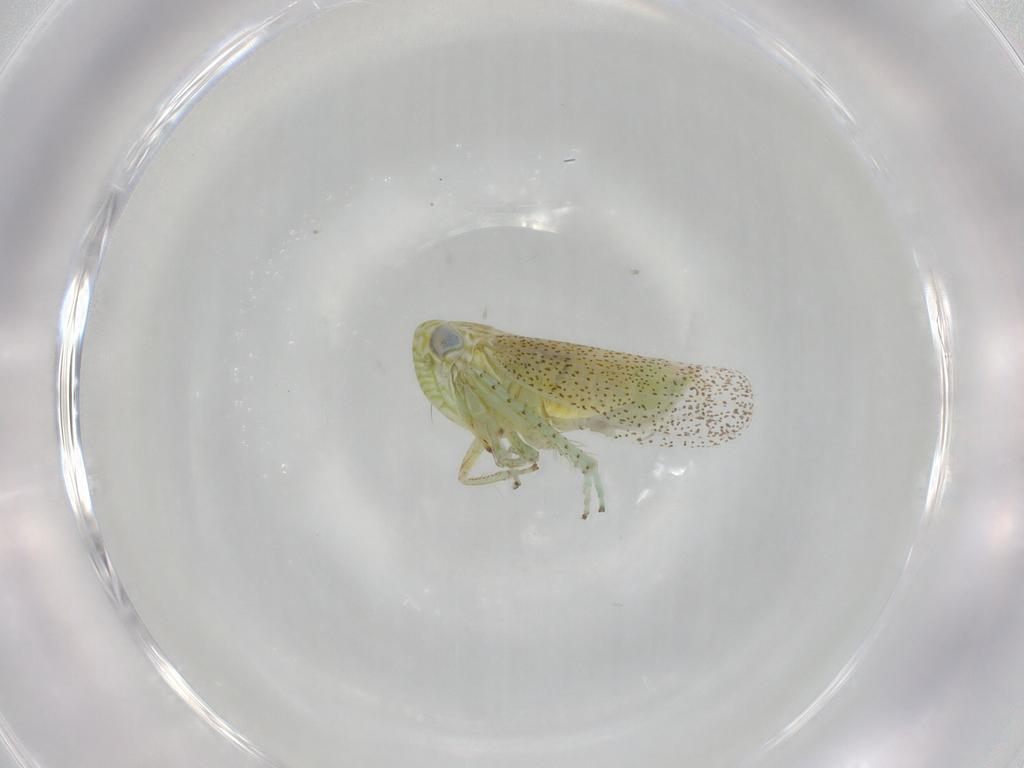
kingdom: Animalia
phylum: Arthropoda
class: Insecta
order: Hemiptera
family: Cicadellidae
